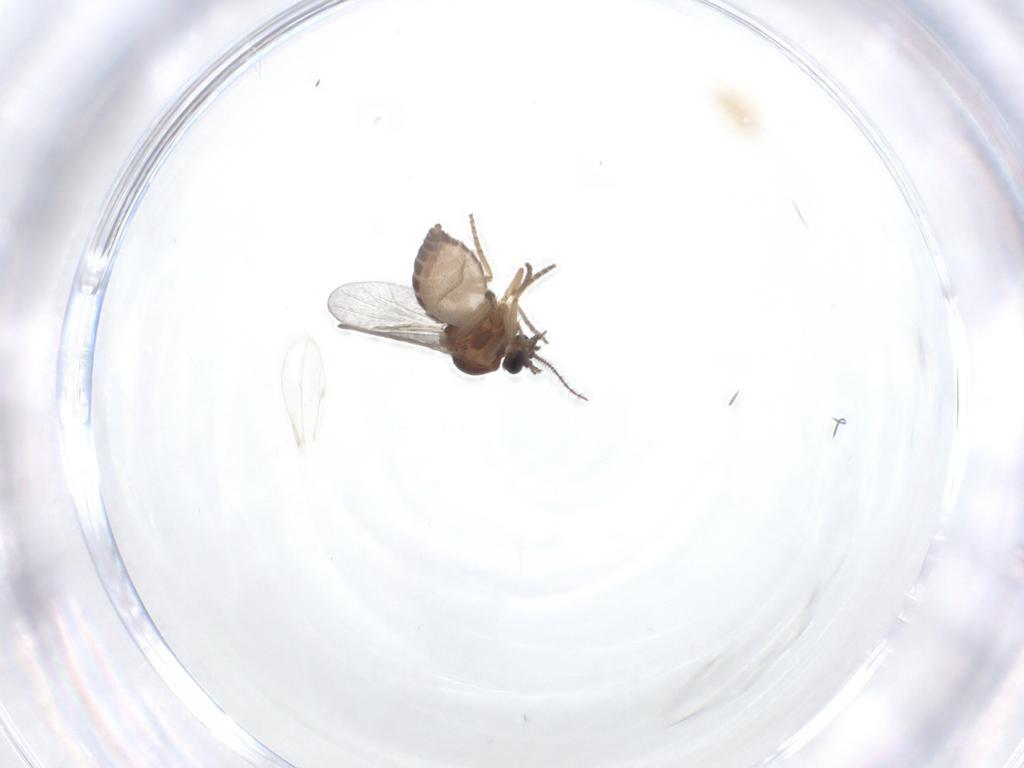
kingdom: Animalia
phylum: Arthropoda
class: Insecta
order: Diptera
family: Ceratopogonidae
